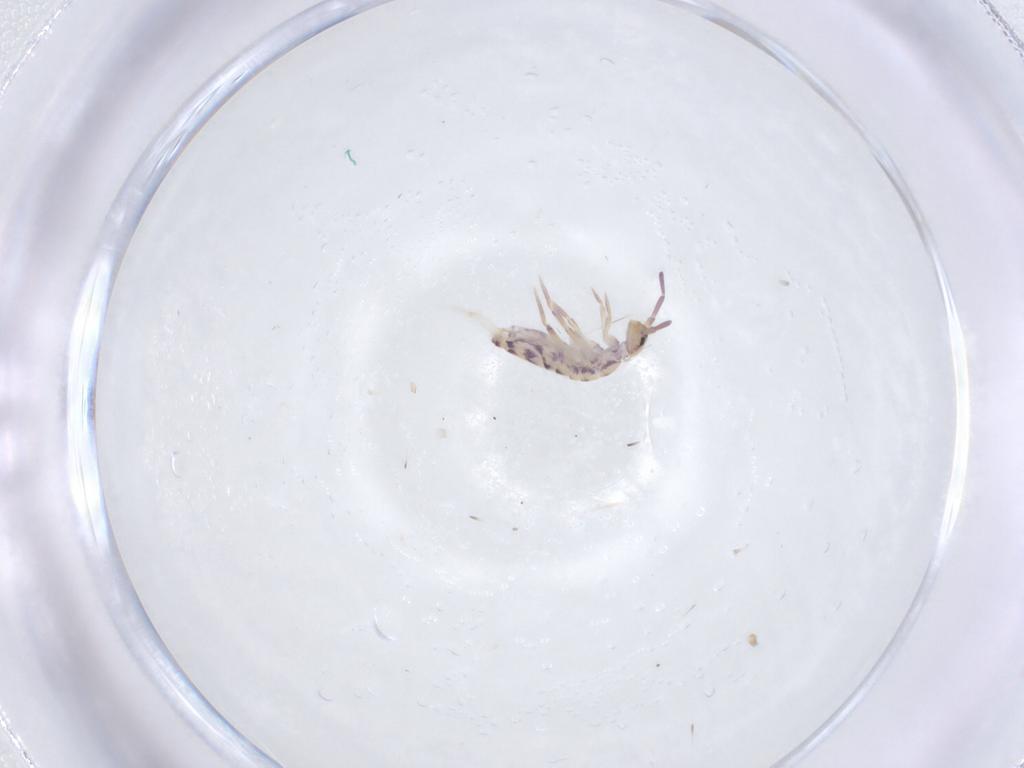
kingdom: Animalia
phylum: Arthropoda
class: Collembola
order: Entomobryomorpha
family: Entomobryidae
